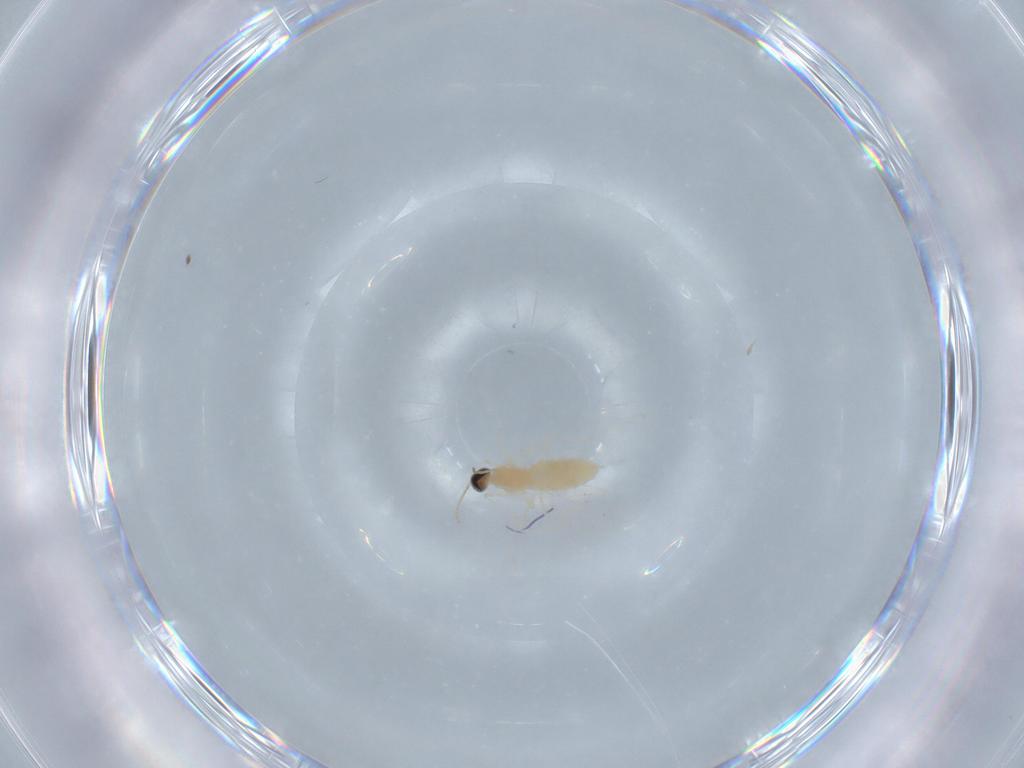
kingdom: Animalia
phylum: Arthropoda
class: Insecta
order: Diptera
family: Cecidomyiidae
